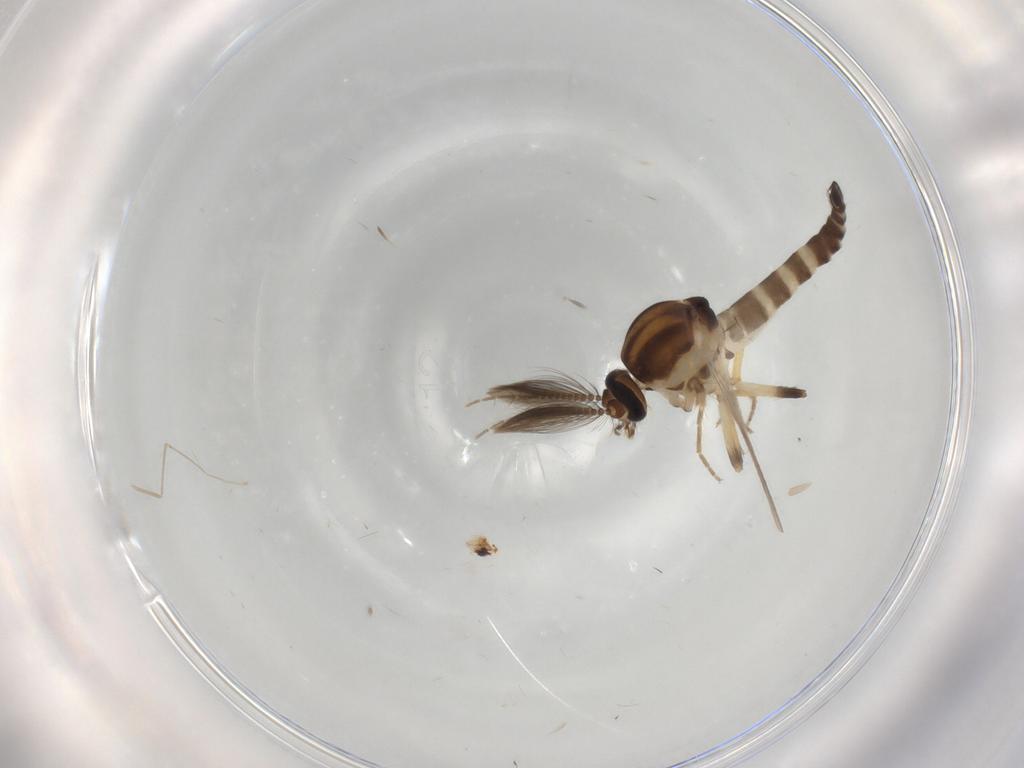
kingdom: Animalia
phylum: Arthropoda
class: Insecta
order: Diptera
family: Ceratopogonidae
